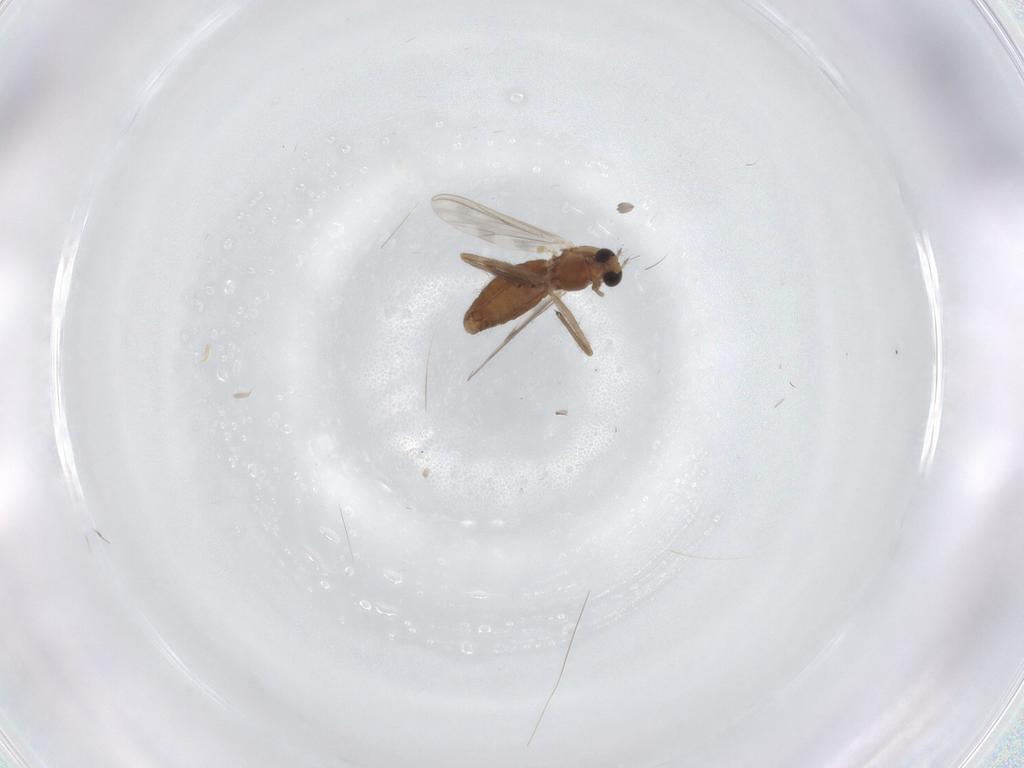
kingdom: Animalia
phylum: Arthropoda
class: Insecta
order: Diptera
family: Chironomidae
